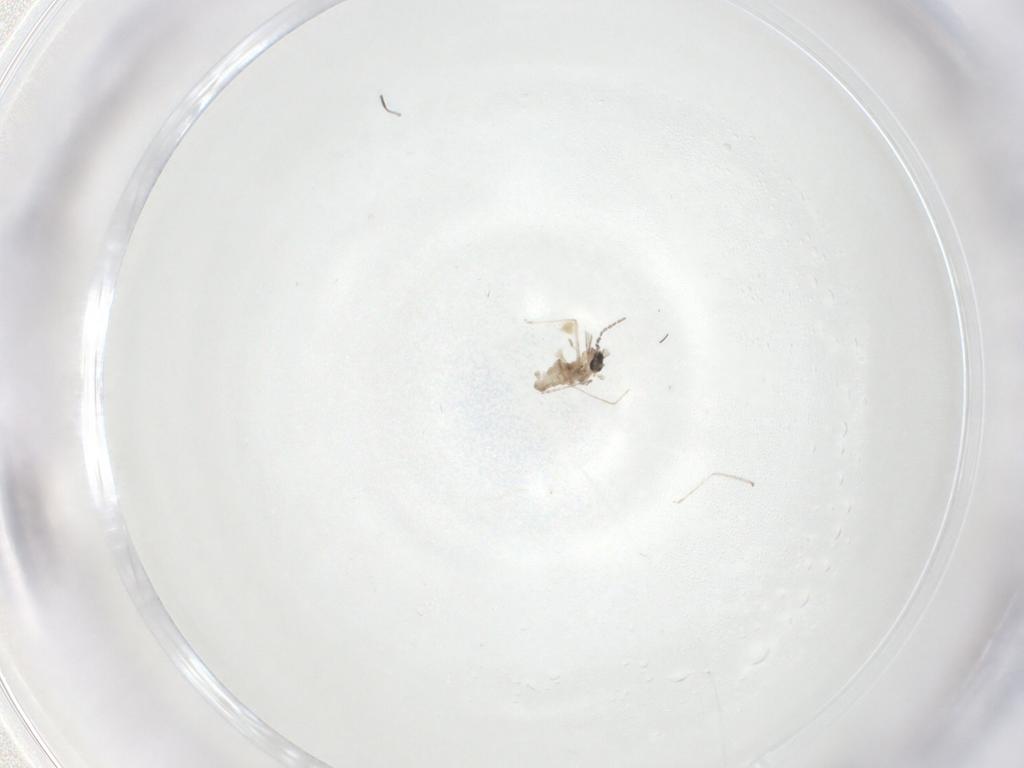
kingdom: Animalia
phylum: Arthropoda
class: Insecta
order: Diptera
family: Cecidomyiidae
